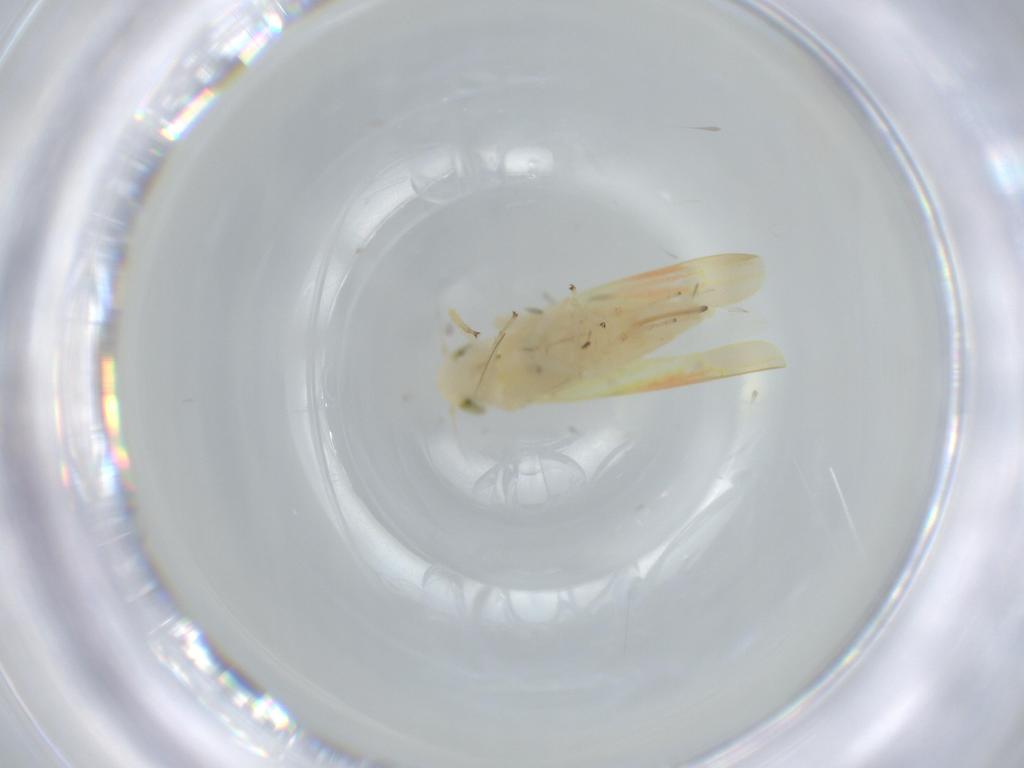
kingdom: Animalia
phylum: Arthropoda
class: Insecta
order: Hemiptera
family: Cicadellidae
